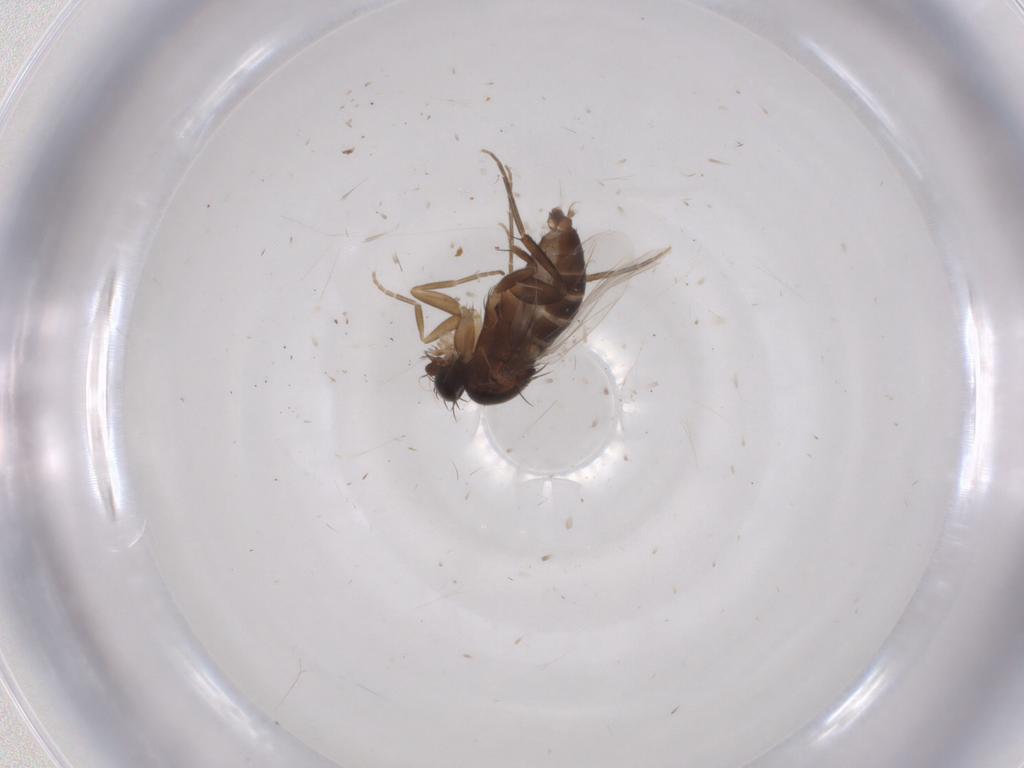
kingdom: Animalia
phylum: Arthropoda
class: Insecta
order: Diptera
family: Phoridae
